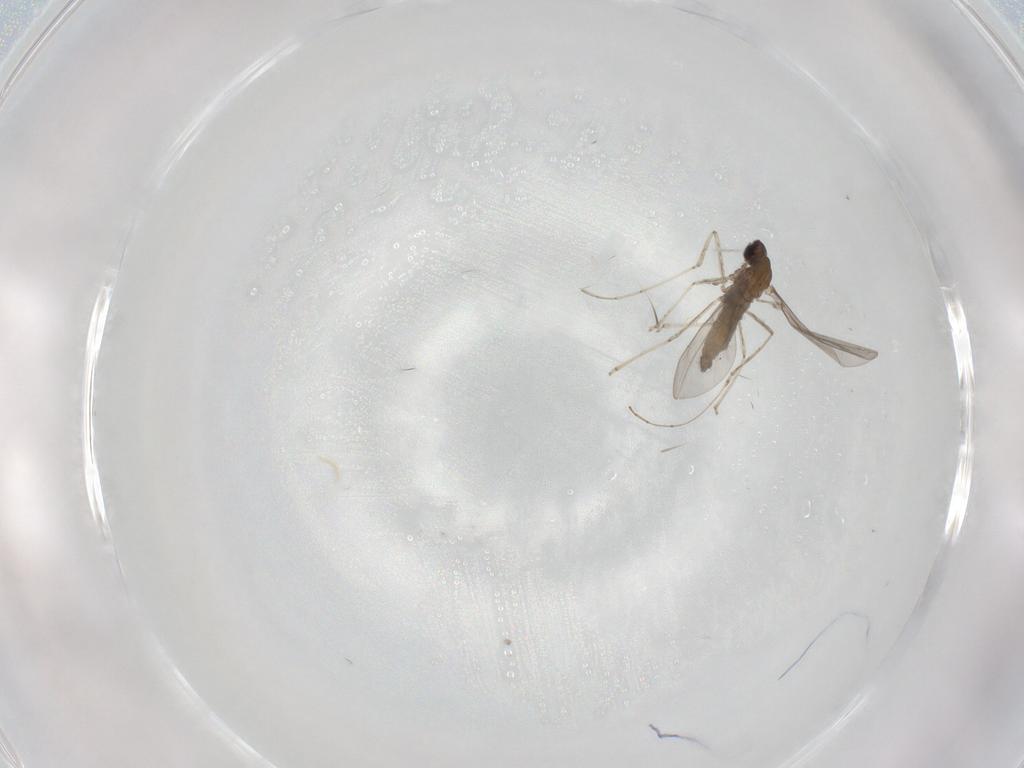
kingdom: Animalia
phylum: Arthropoda
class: Insecta
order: Diptera
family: Cecidomyiidae
